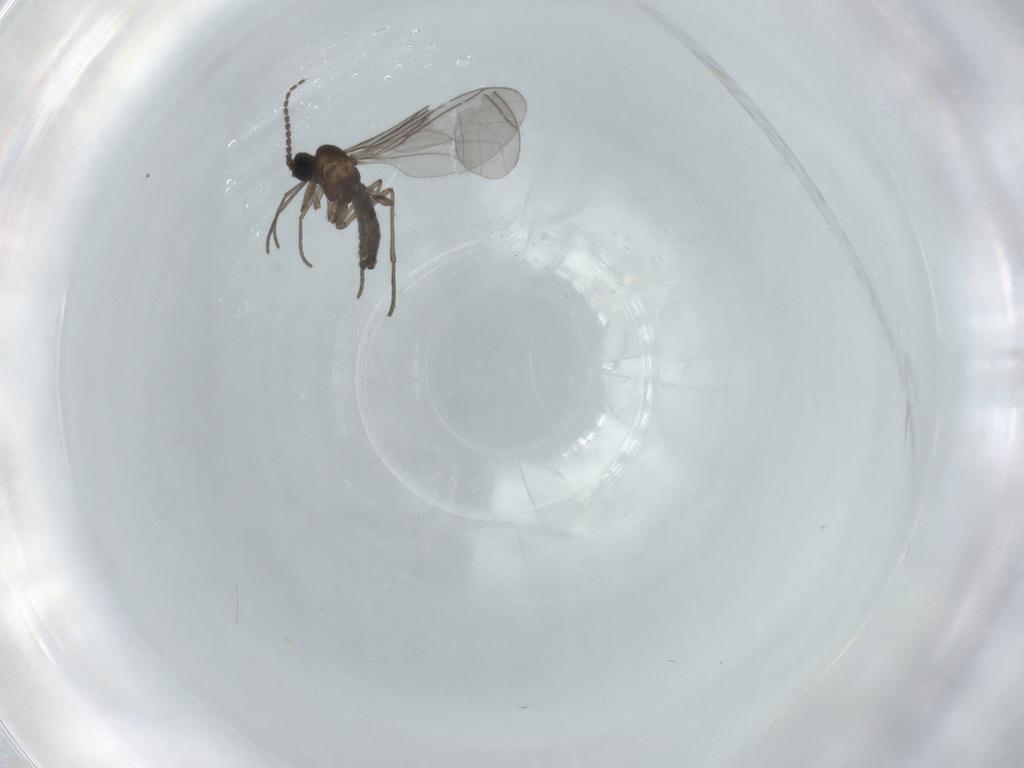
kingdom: Animalia
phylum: Arthropoda
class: Insecta
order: Diptera
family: Sciaridae
